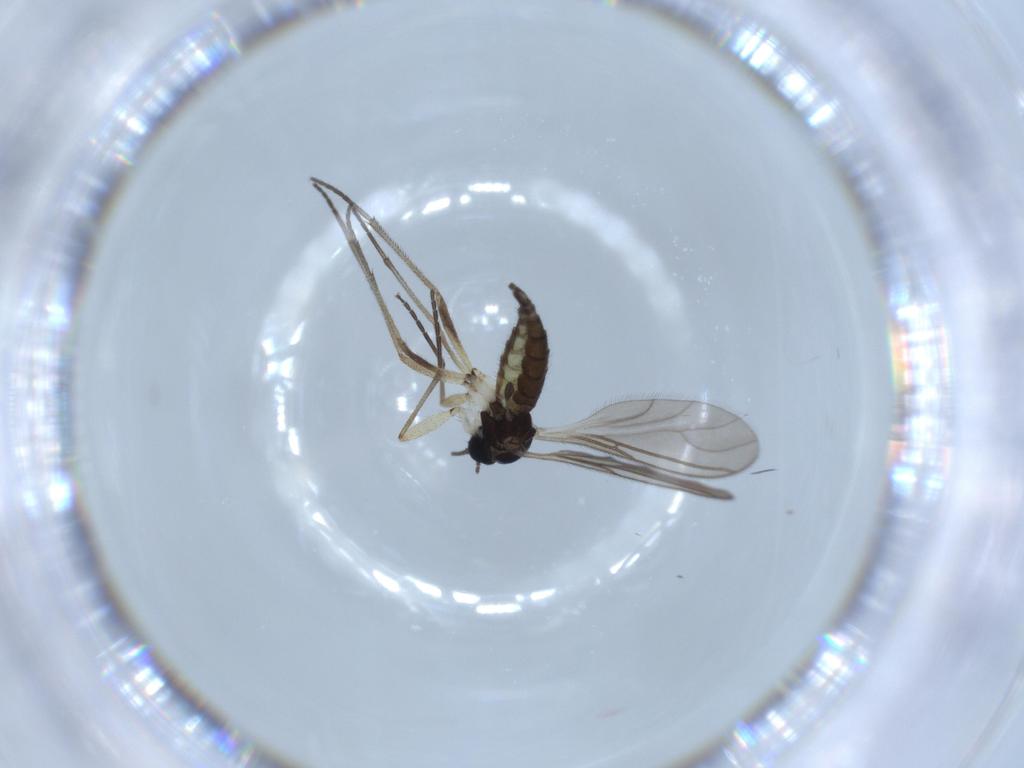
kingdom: Animalia
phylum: Arthropoda
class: Insecta
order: Diptera
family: Sciaridae
